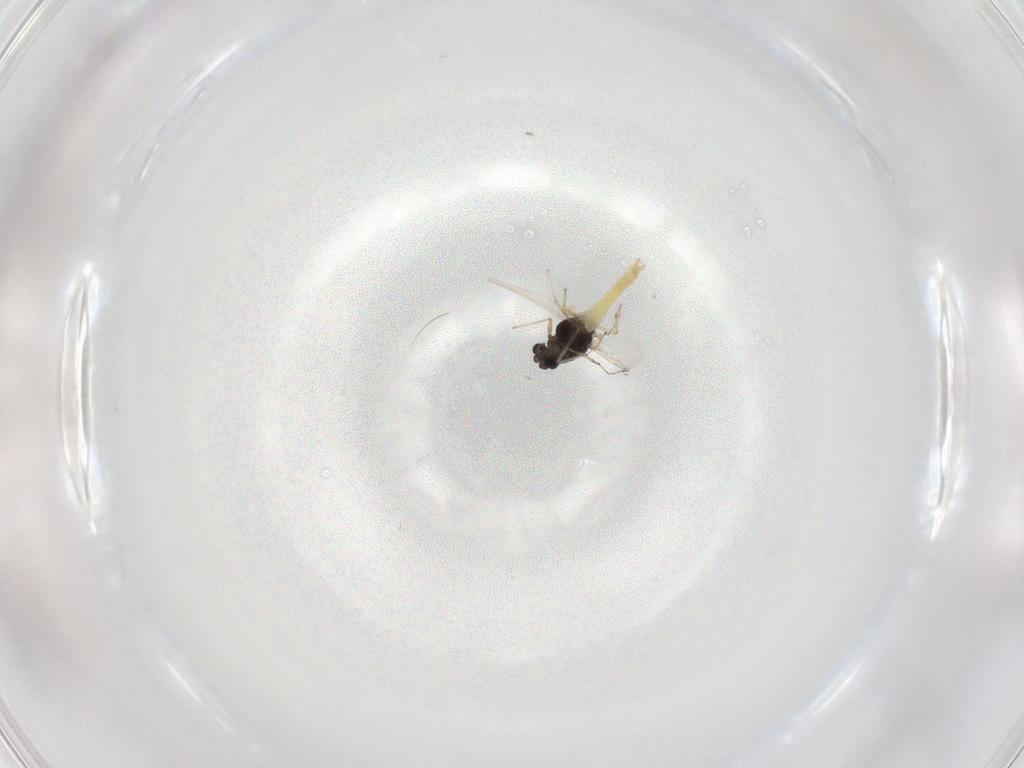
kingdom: Animalia
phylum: Arthropoda
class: Insecta
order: Diptera
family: Chironomidae
